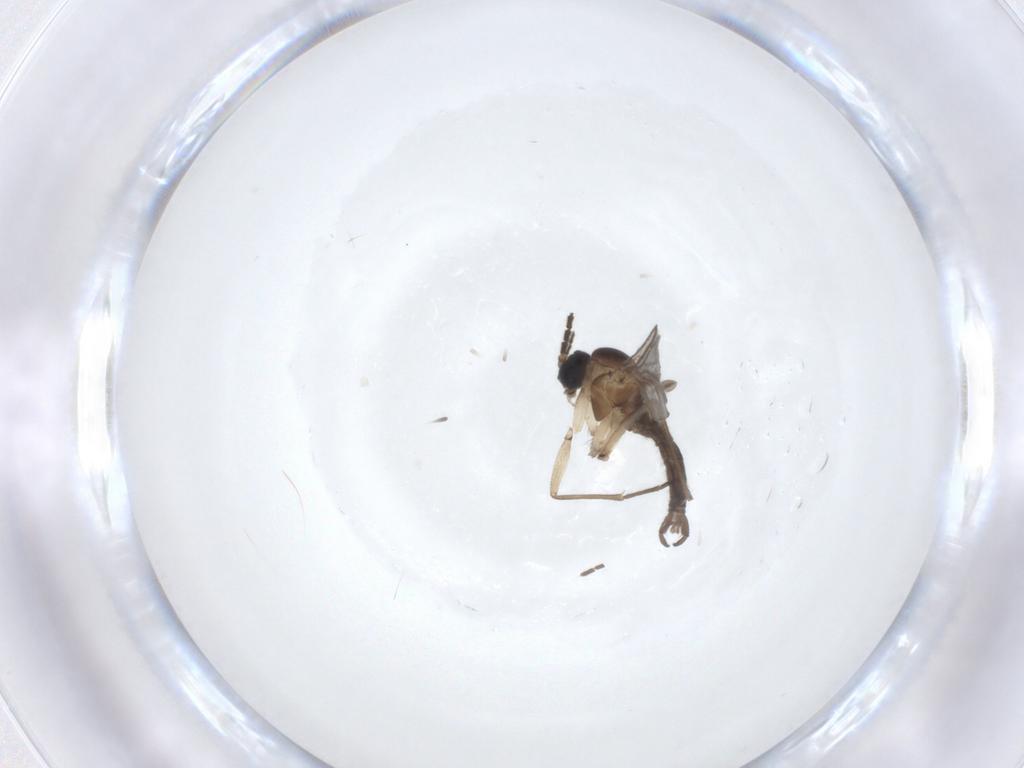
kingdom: Animalia
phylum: Arthropoda
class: Insecta
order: Diptera
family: Sciaridae
